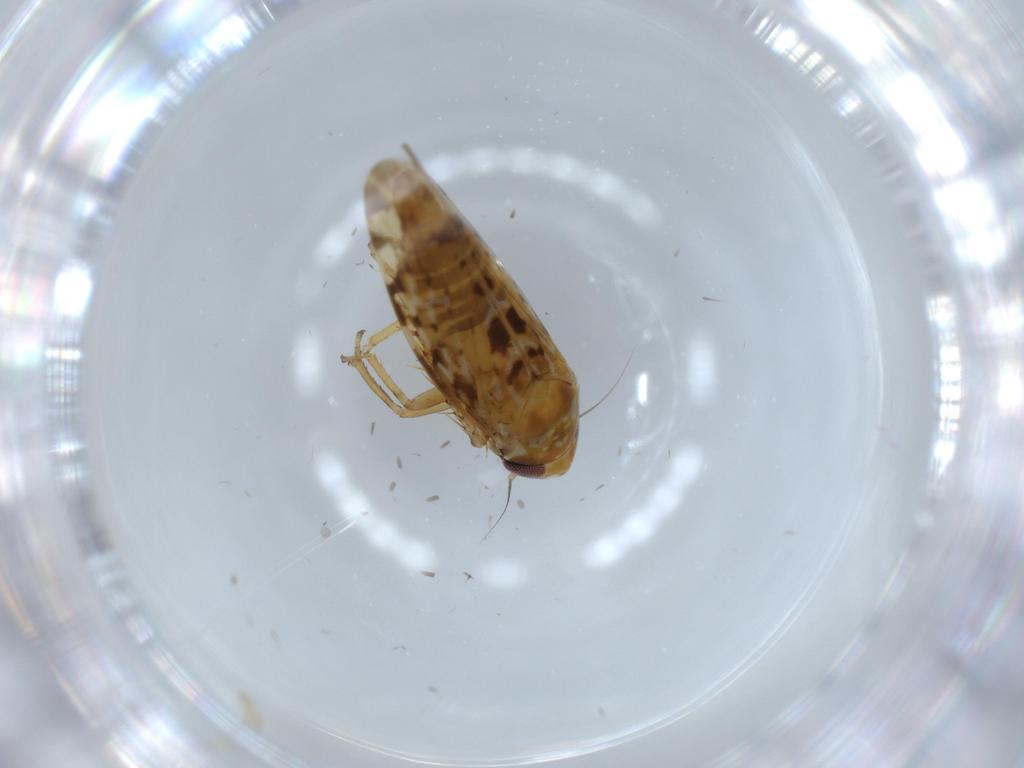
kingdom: Animalia
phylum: Arthropoda
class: Insecta
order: Hemiptera
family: Cicadellidae
